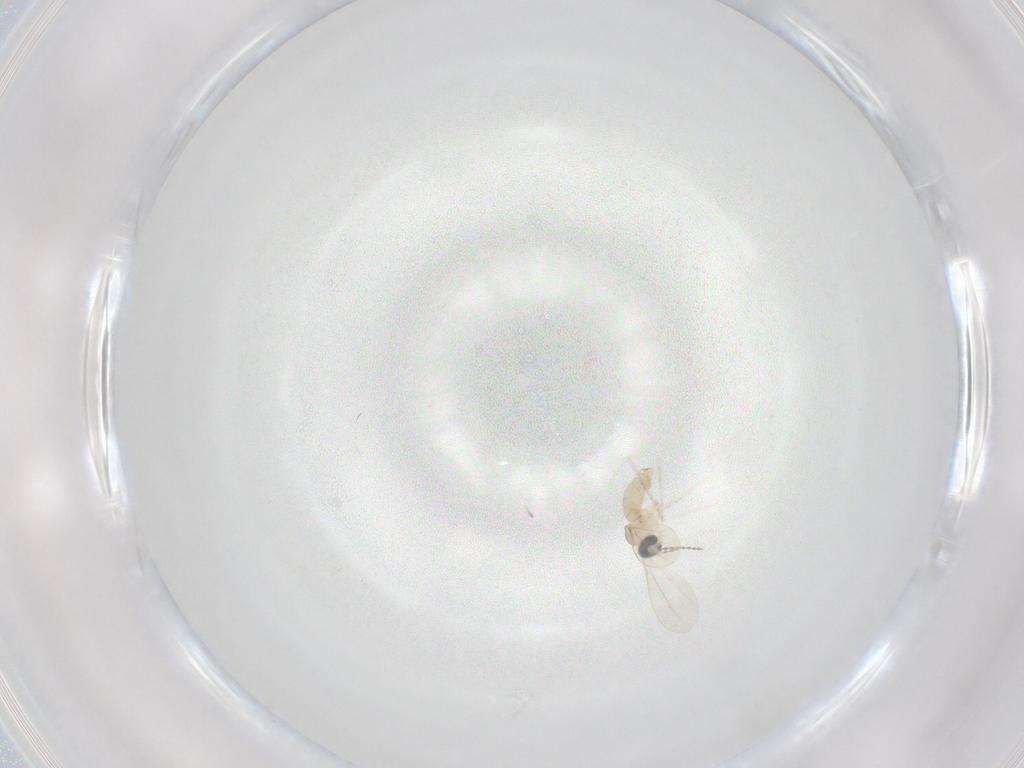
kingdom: Animalia
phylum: Arthropoda
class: Insecta
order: Diptera
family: Cecidomyiidae
